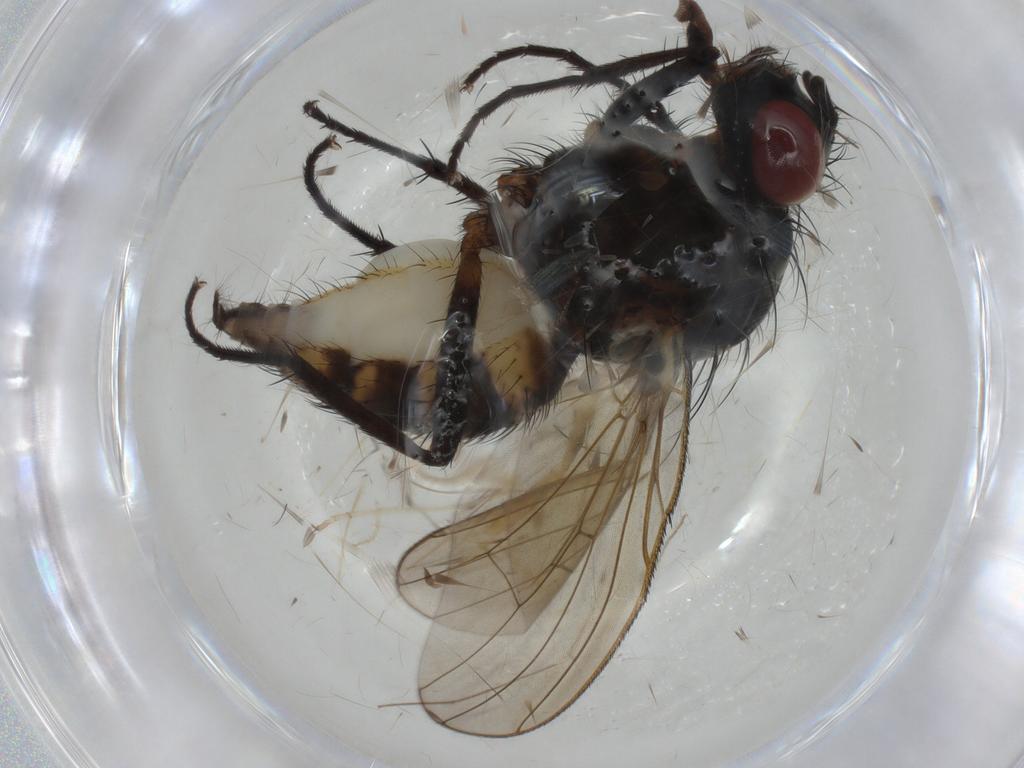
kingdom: Animalia
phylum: Arthropoda
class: Insecta
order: Diptera
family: Anthomyiidae
